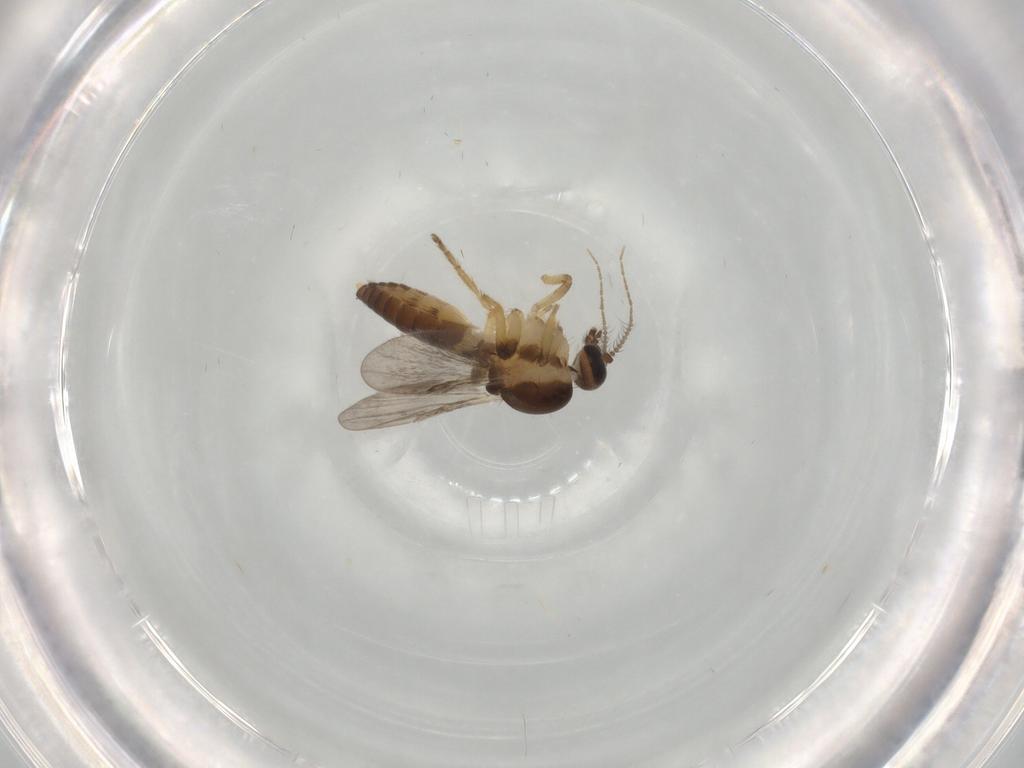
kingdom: Animalia
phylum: Arthropoda
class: Insecta
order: Diptera
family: Ceratopogonidae
